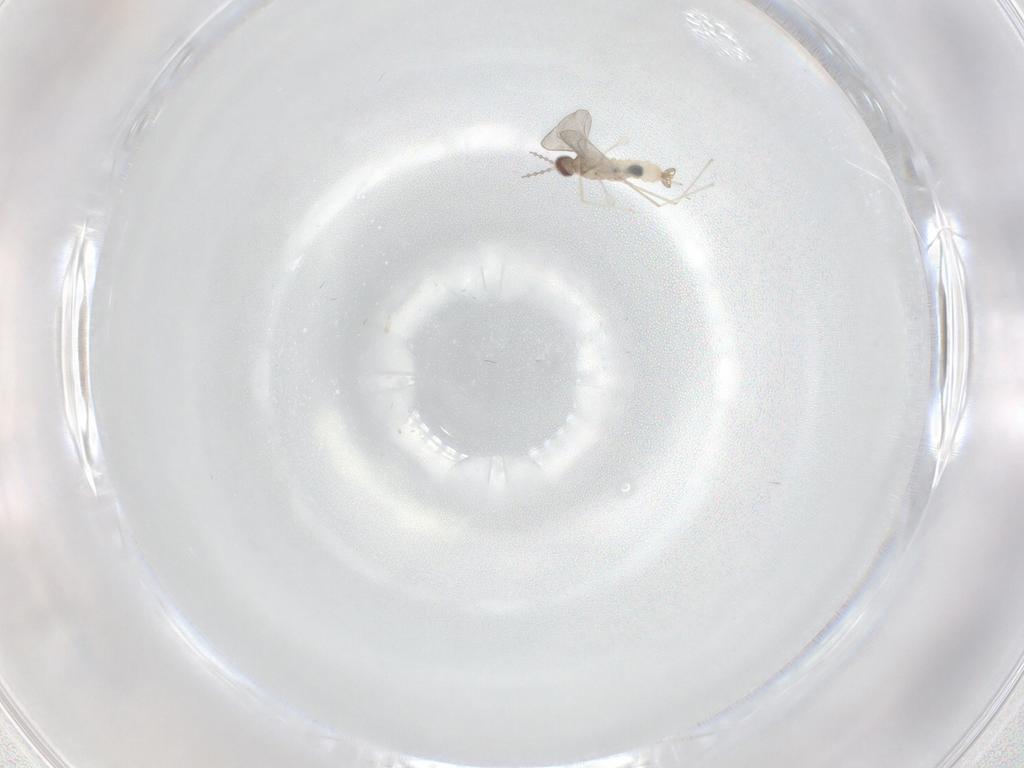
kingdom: Animalia
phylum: Arthropoda
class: Insecta
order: Diptera
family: Cecidomyiidae
